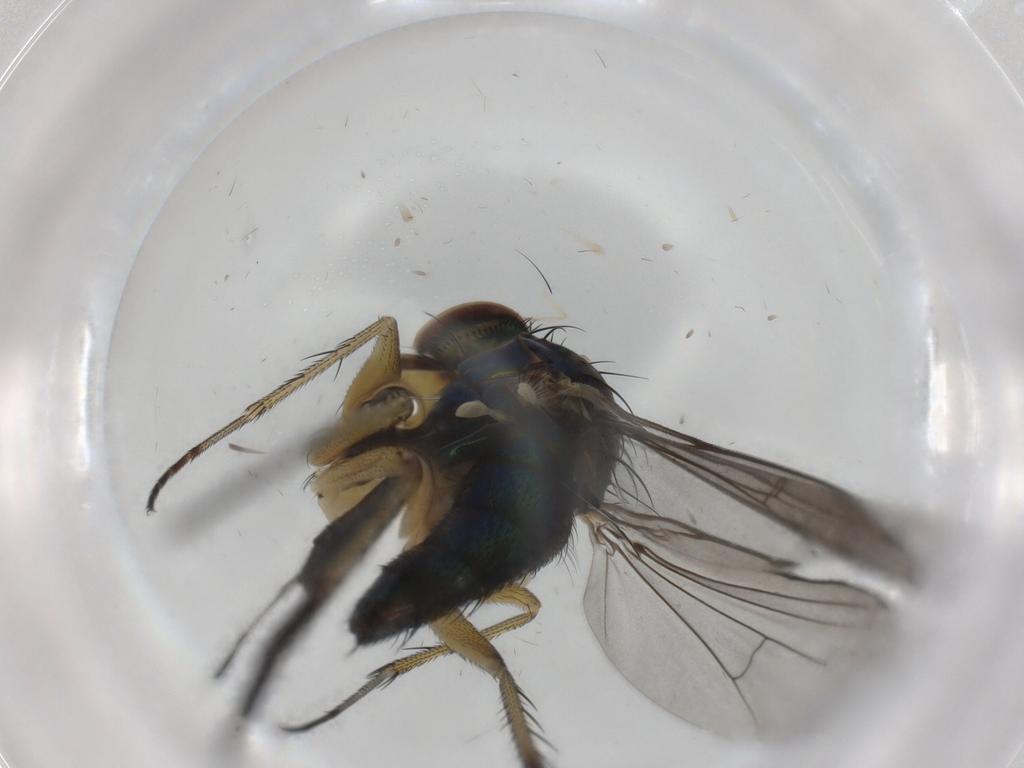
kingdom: Animalia
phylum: Arthropoda
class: Insecta
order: Diptera
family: Dolichopodidae
